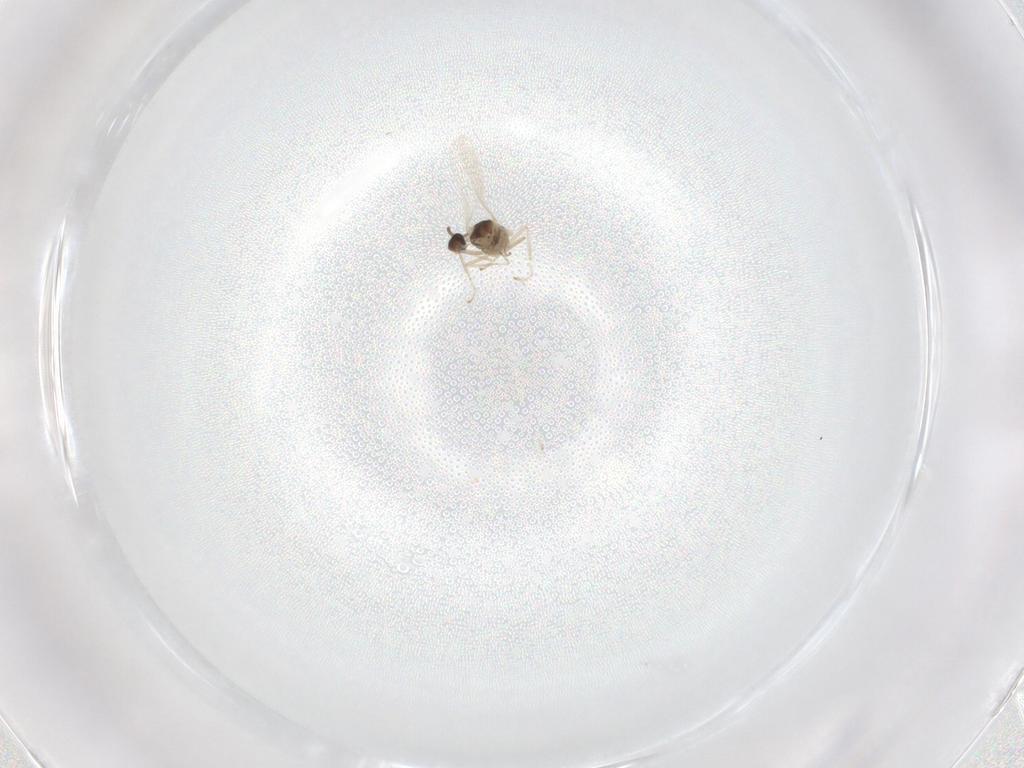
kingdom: Animalia
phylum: Arthropoda
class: Insecta
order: Diptera
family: Cecidomyiidae
